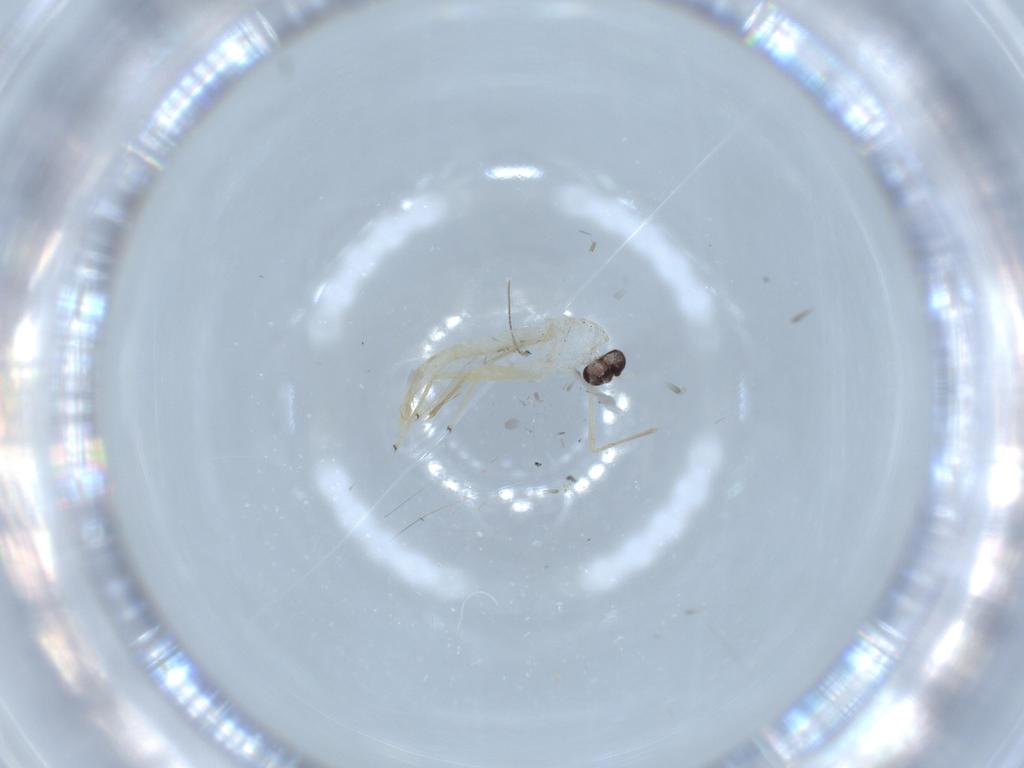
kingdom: Animalia
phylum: Arthropoda
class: Insecta
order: Diptera
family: Chironomidae
